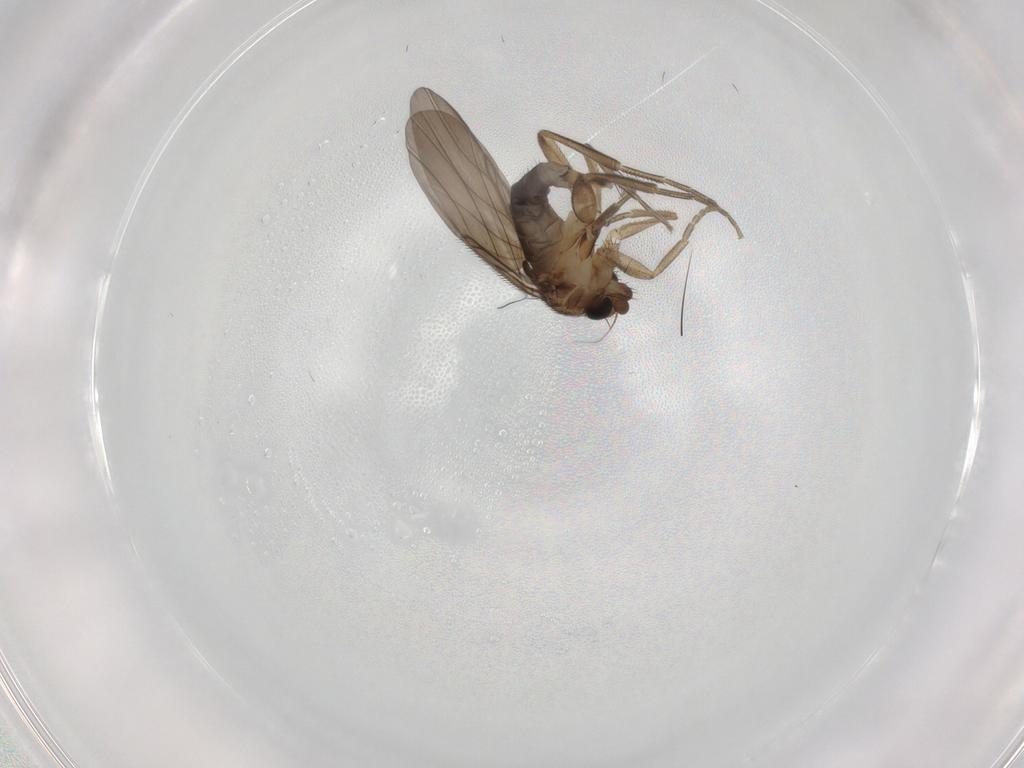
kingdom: Animalia
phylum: Arthropoda
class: Insecta
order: Diptera
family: Phoridae
